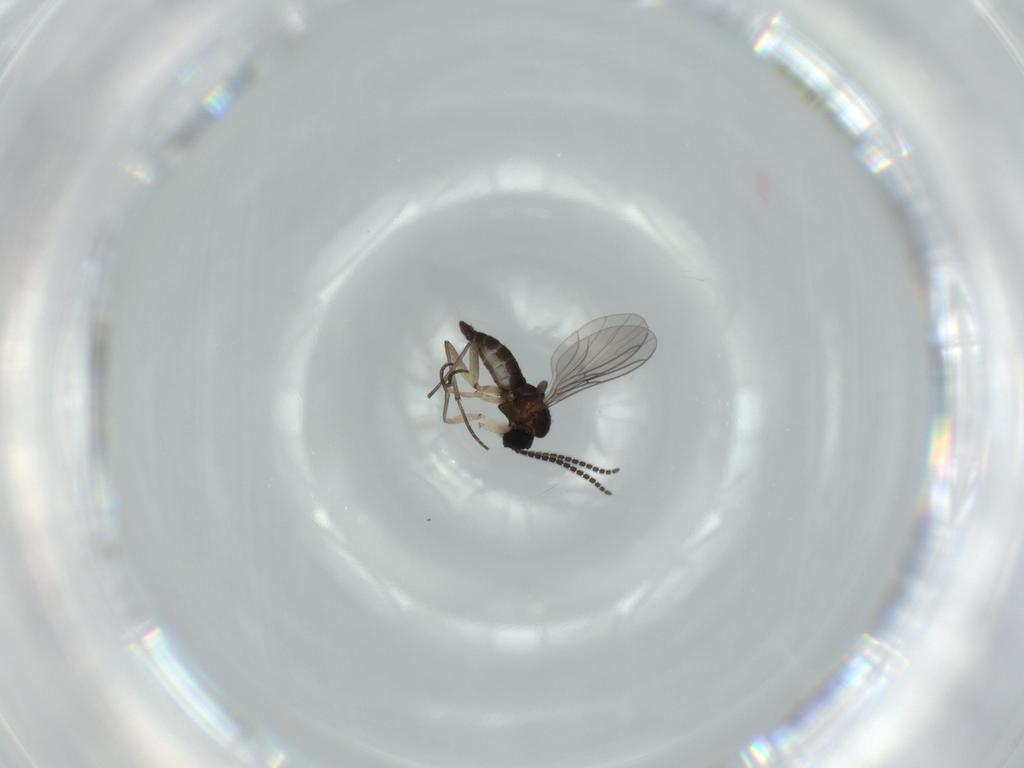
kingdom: Animalia
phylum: Arthropoda
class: Insecta
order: Diptera
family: Sciaridae
